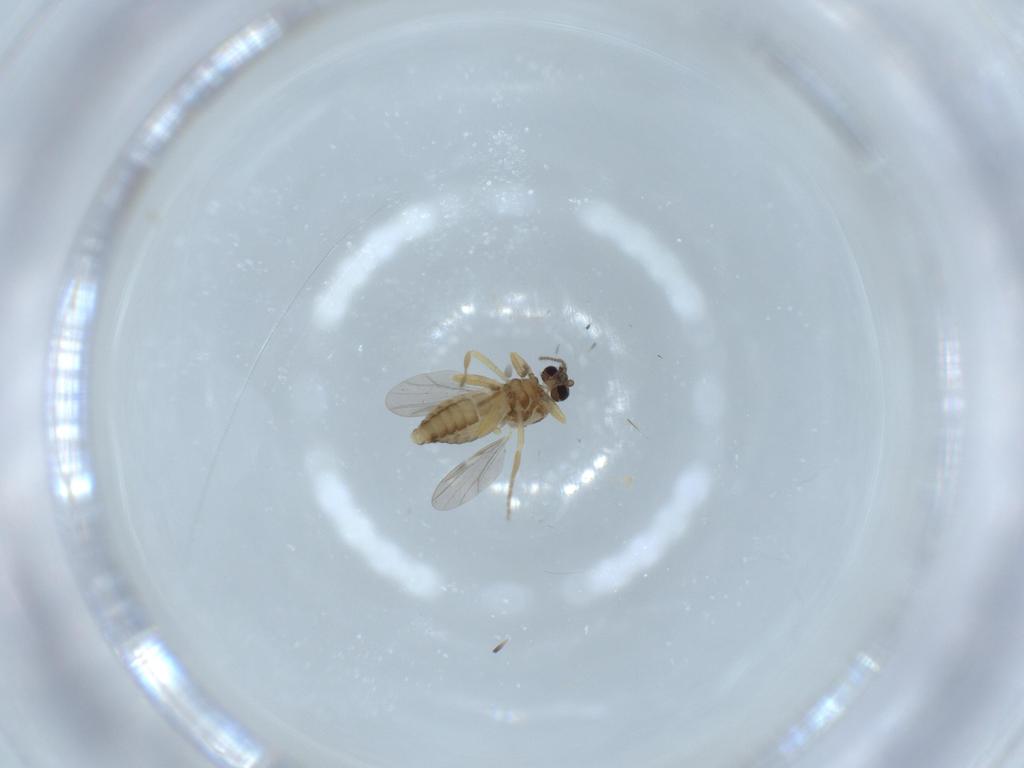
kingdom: Animalia
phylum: Arthropoda
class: Insecta
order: Diptera
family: Ceratopogonidae
